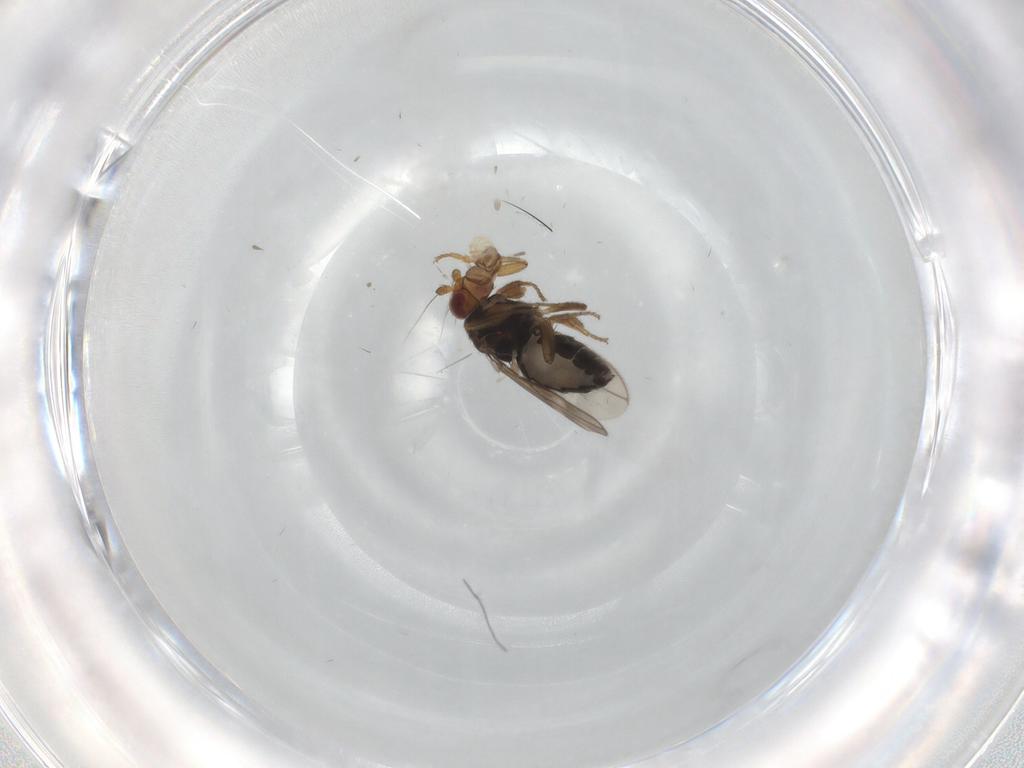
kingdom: Animalia
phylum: Arthropoda
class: Insecta
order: Diptera
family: Sphaeroceridae
